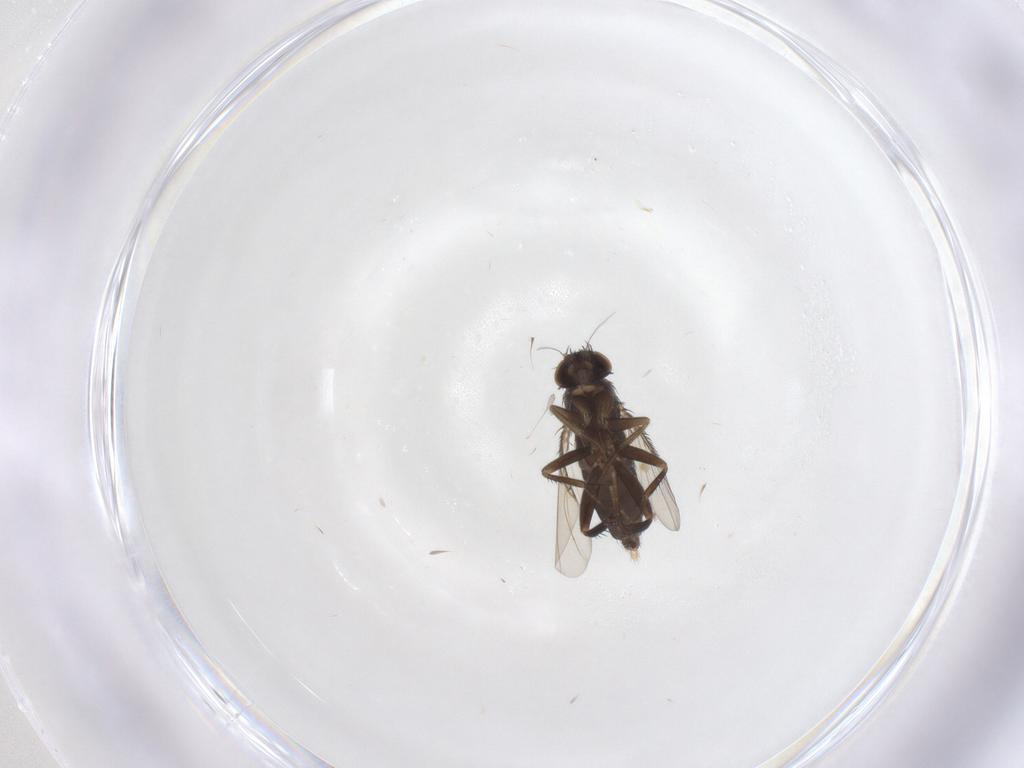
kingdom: Animalia
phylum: Arthropoda
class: Insecta
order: Diptera
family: Phoridae
